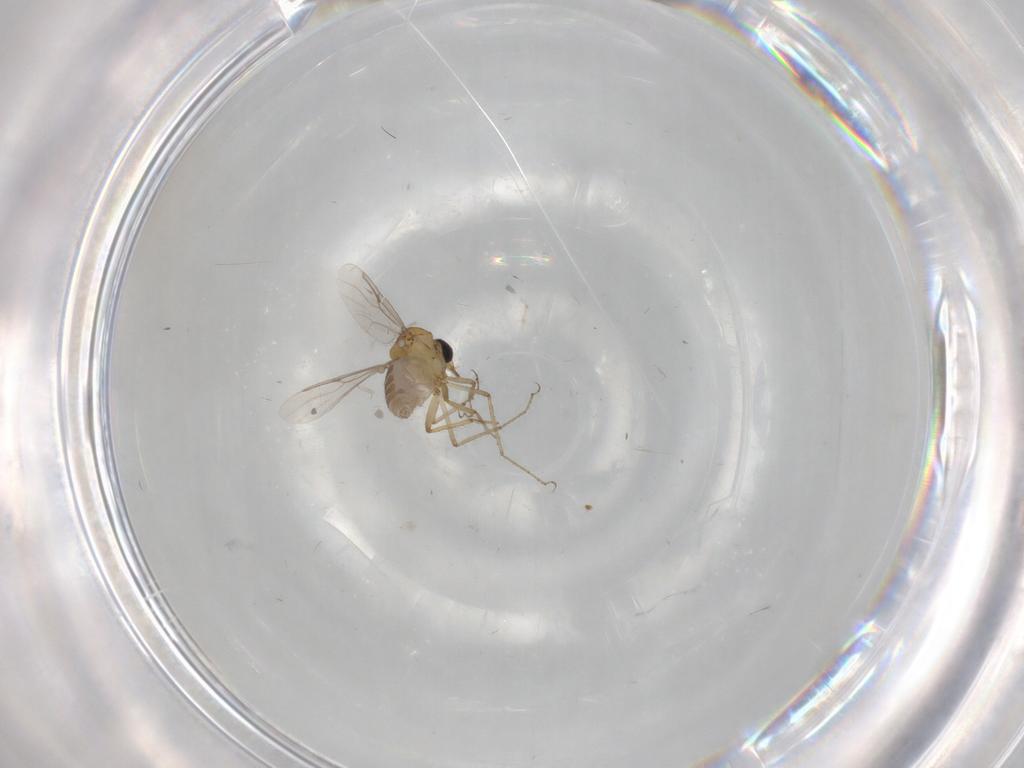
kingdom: Animalia
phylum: Arthropoda
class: Insecta
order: Diptera
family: Ceratopogonidae
